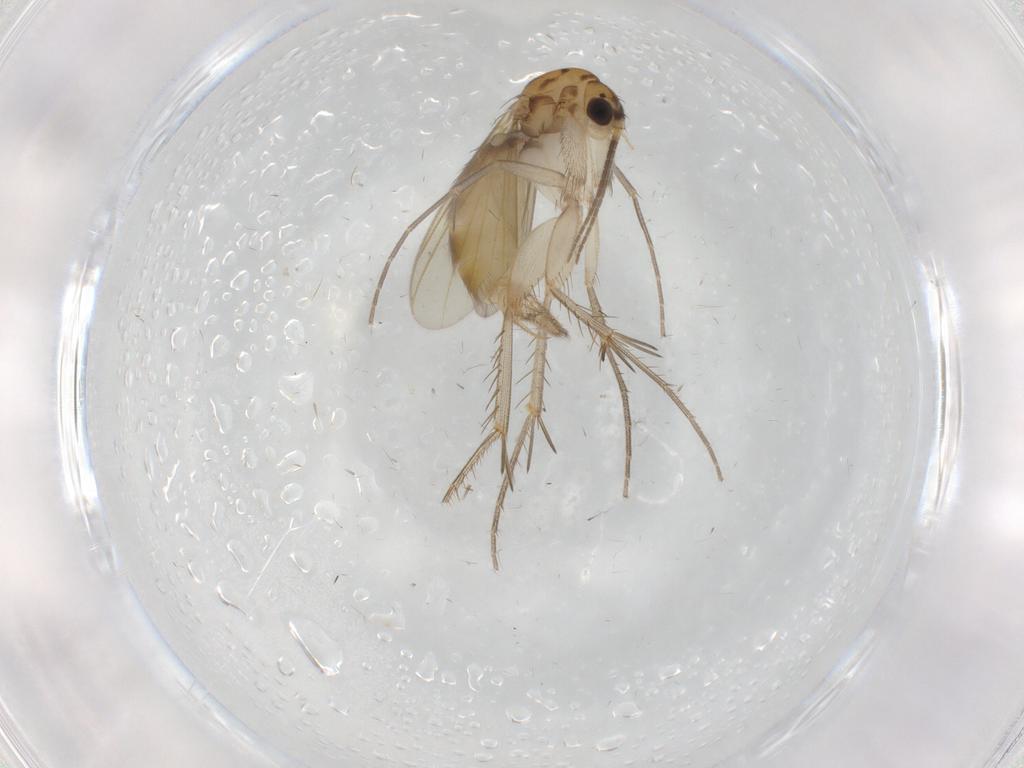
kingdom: Animalia
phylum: Arthropoda
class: Insecta
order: Diptera
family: Mycetophilidae
